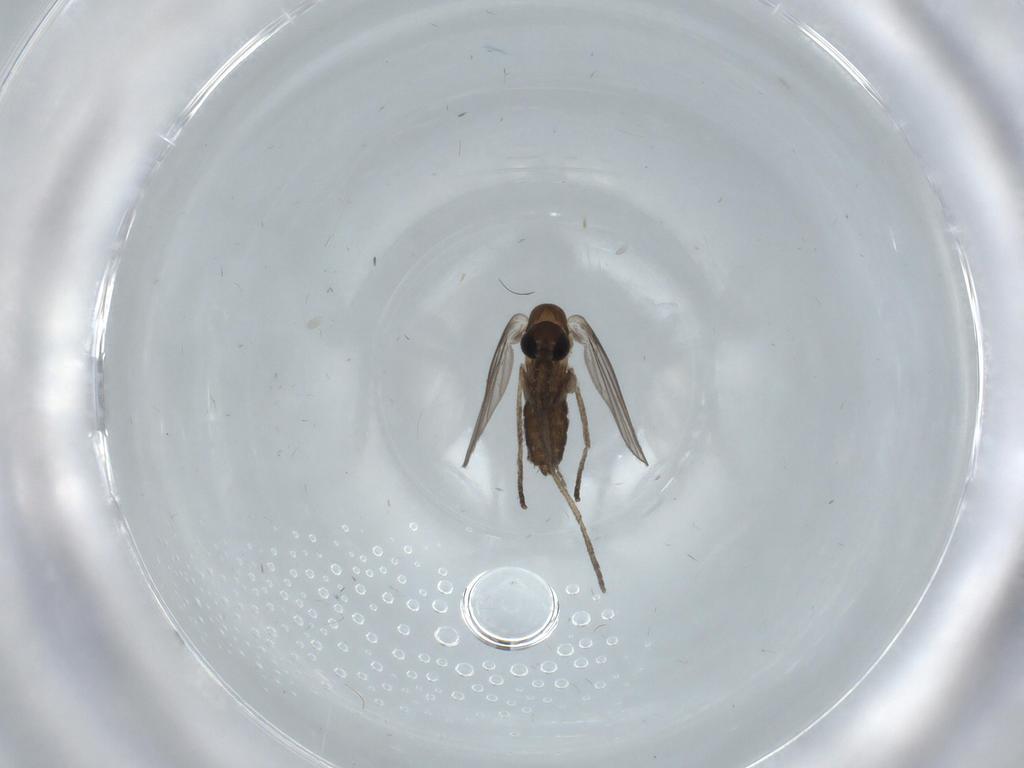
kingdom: Animalia
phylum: Arthropoda
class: Insecta
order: Diptera
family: Psychodidae
